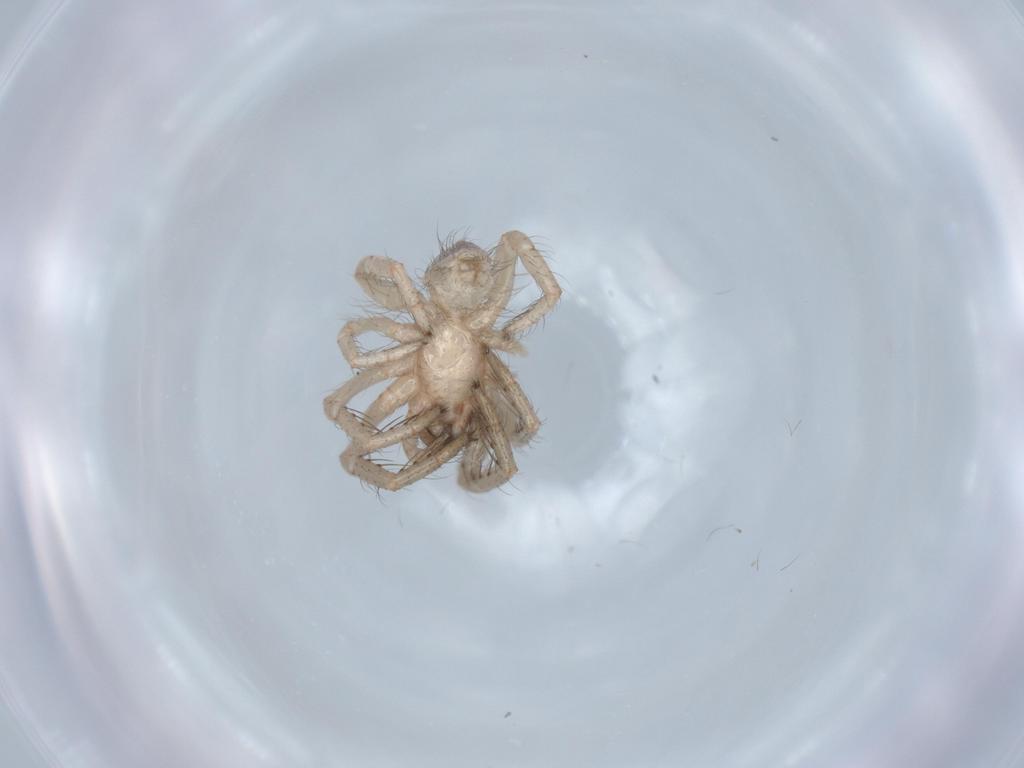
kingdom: Animalia
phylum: Arthropoda
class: Arachnida
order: Araneae
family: Segestriidae
